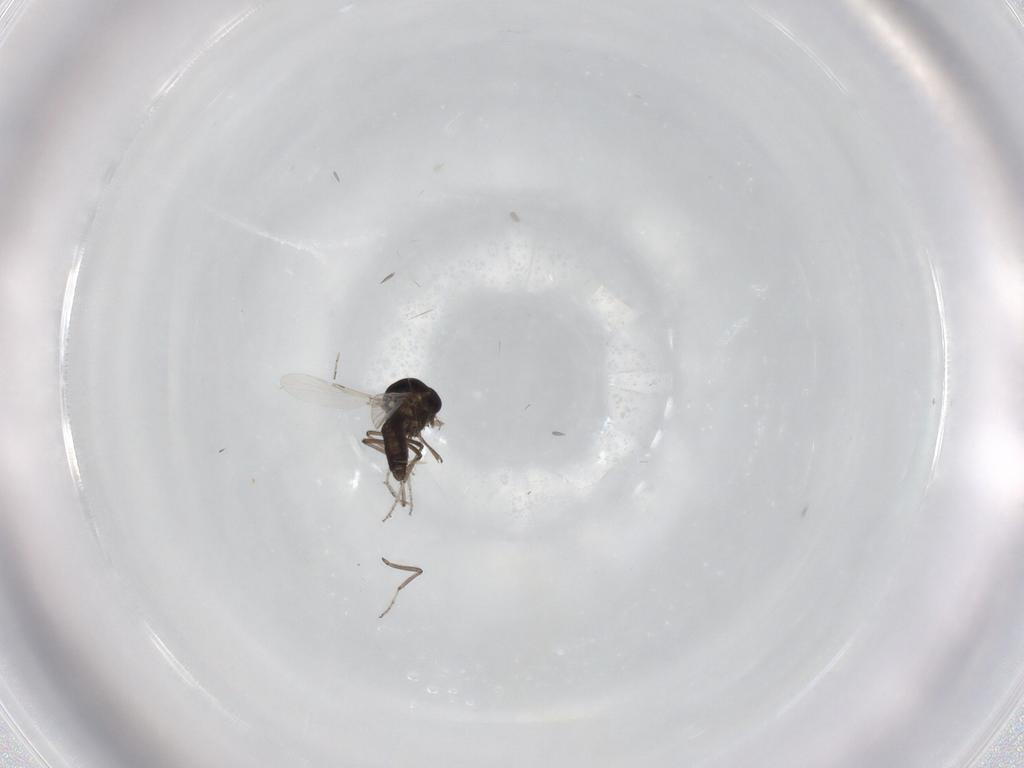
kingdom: Animalia
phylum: Arthropoda
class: Insecta
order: Diptera
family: Ceratopogonidae
